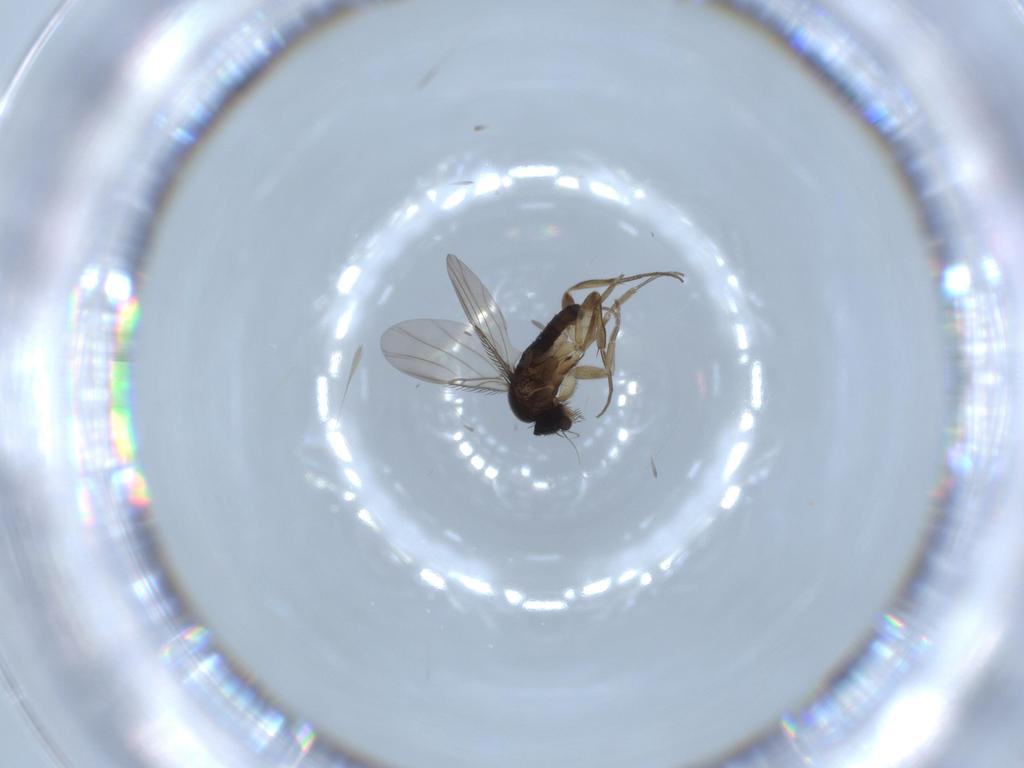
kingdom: Animalia
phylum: Arthropoda
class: Insecta
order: Diptera
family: Phoridae
